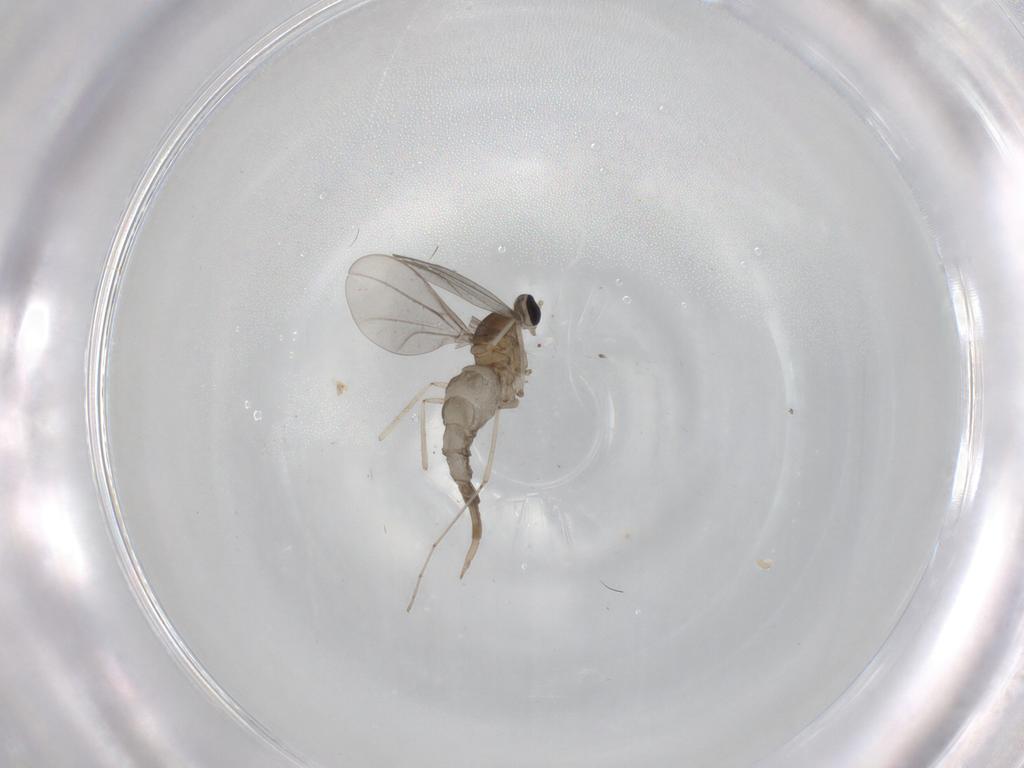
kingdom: Animalia
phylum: Arthropoda
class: Insecta
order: Diptera
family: Cecidomyiidae
